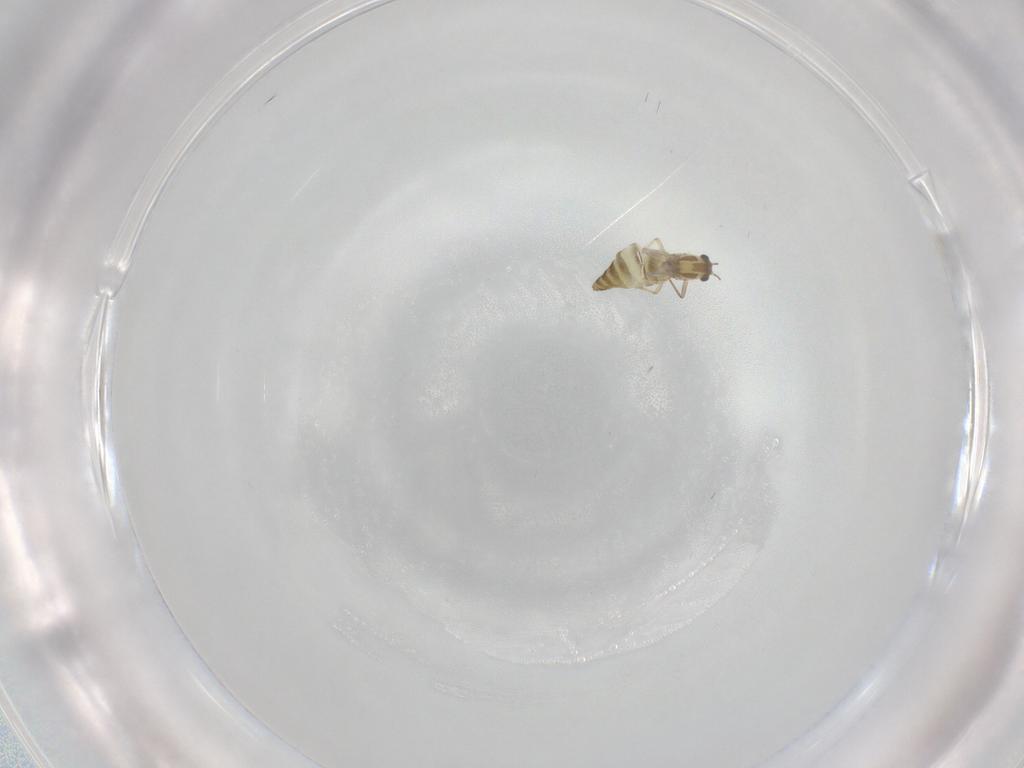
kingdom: Animalia
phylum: Arthropoda
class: Insecta
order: Diptera
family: Chironomidae
